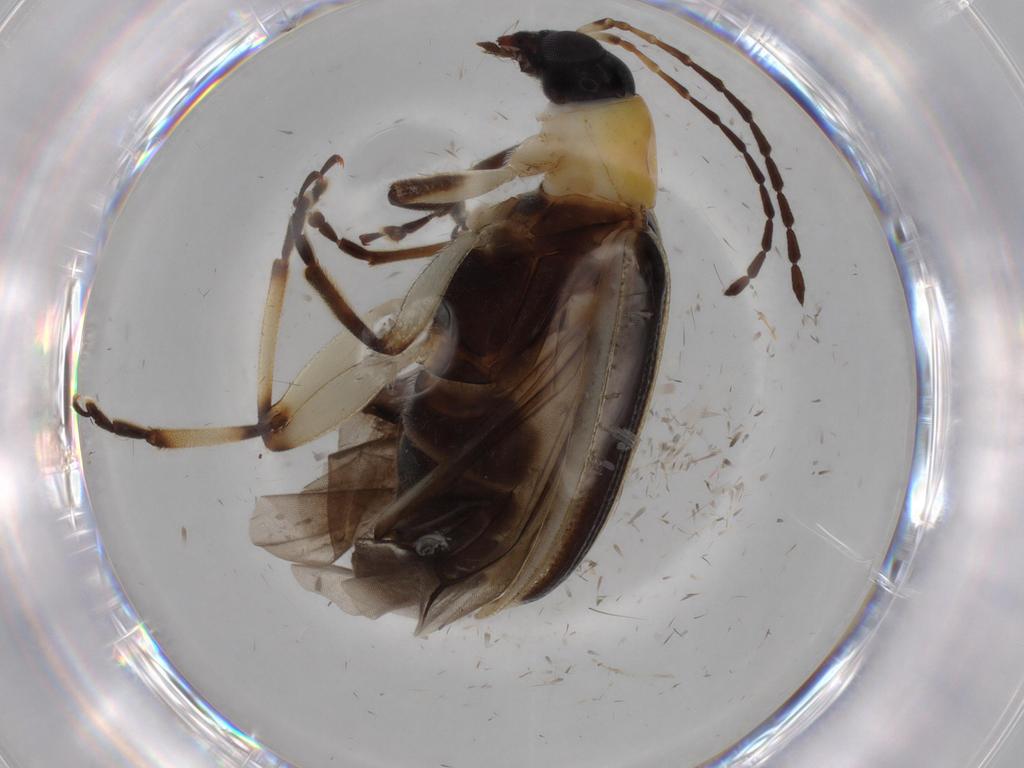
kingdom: Animalia
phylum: Arthropoda
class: Insecta
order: Coleoptera
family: Chrysomelidae
